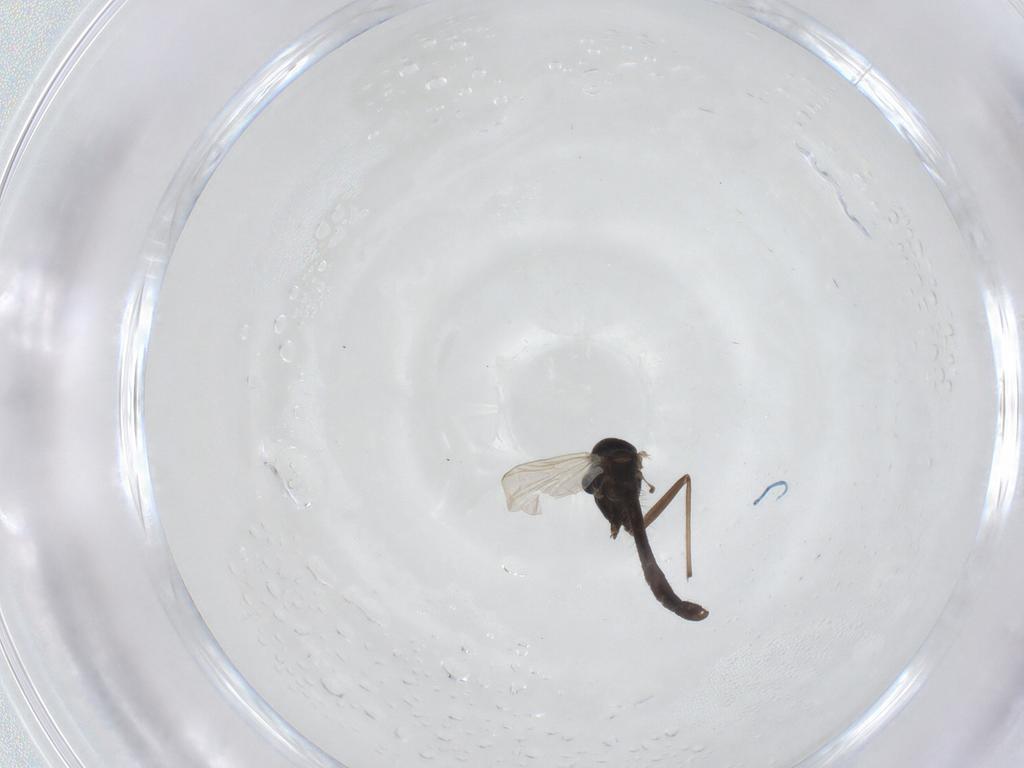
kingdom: Animalia
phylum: Arthropoda
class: Insecta
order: Diptera
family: Chironomidae
